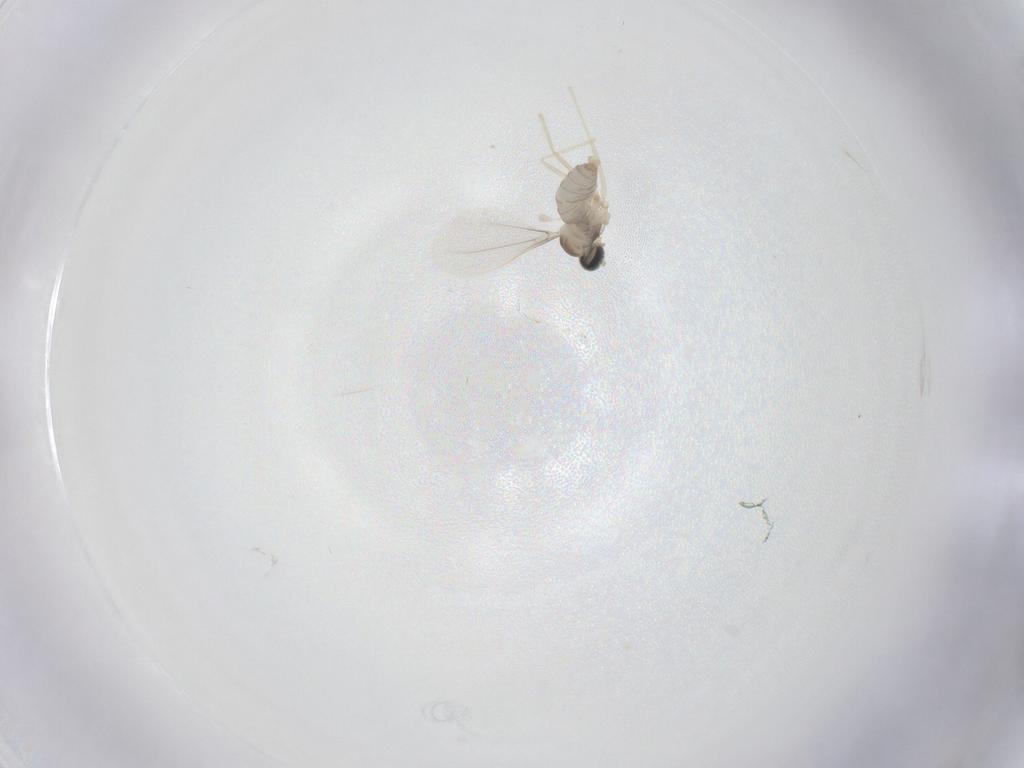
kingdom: Animalia
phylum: Arthropoda
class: Insecta
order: Diptera
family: Cecidomyiidae
